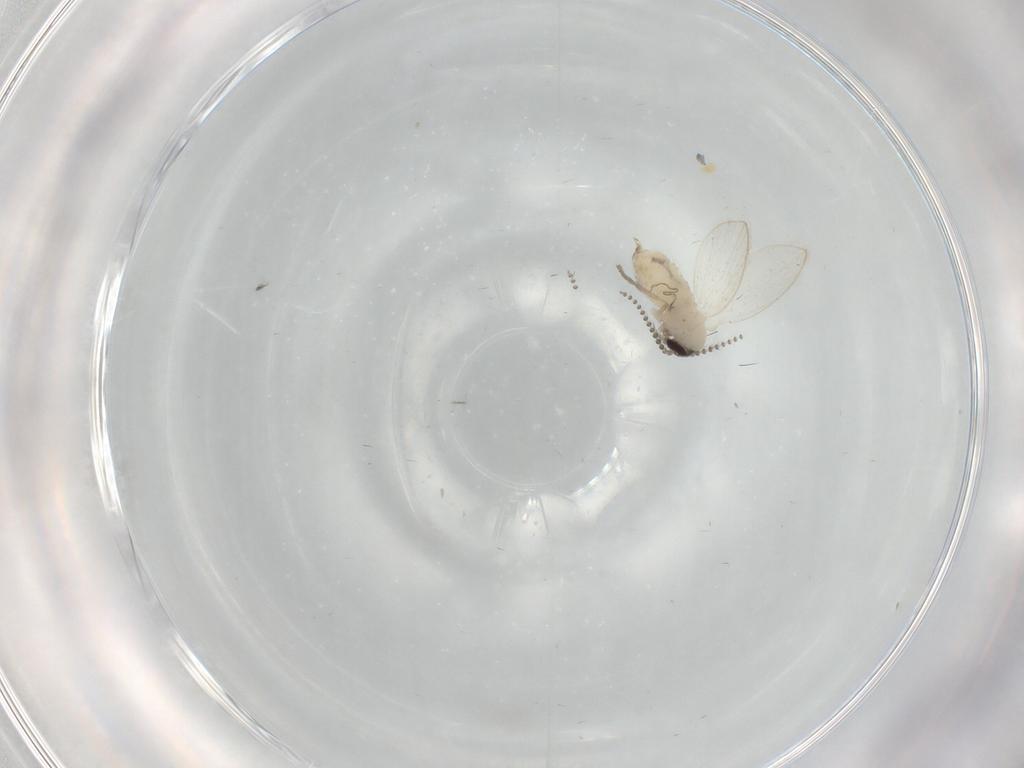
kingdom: Animalia
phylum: Arthropoda
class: Insecta
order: Diptera
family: Psychodidae
